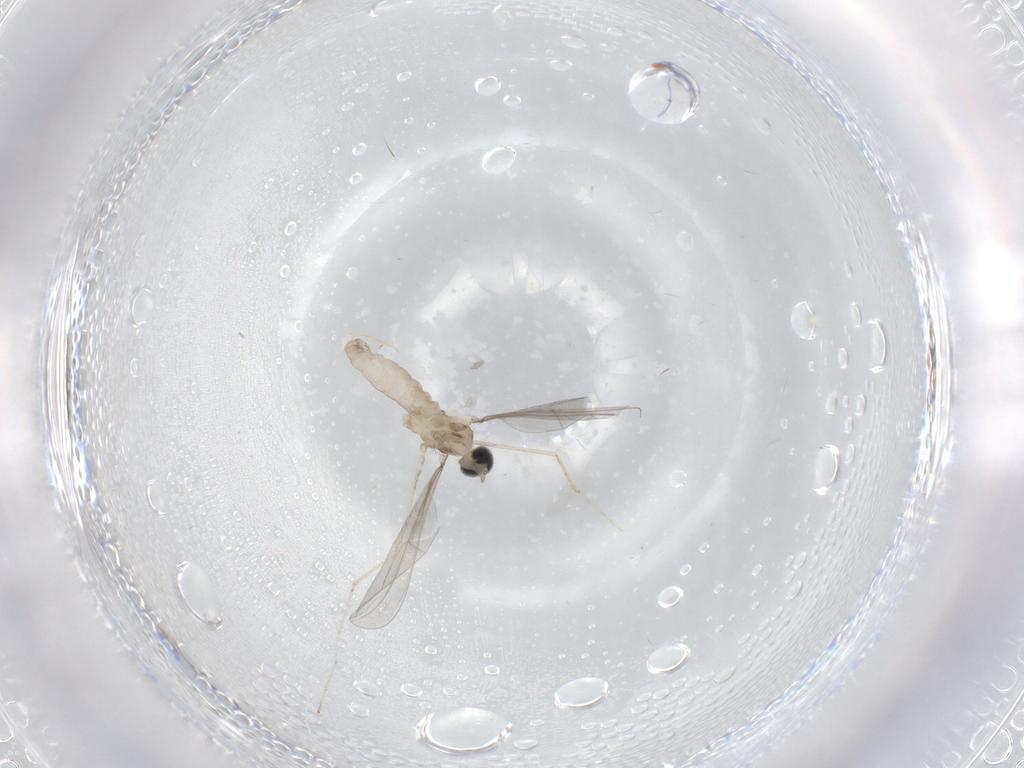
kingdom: Animalia
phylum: Arthropoda
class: Insecta
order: Diptera
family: Cecidomyiidae
